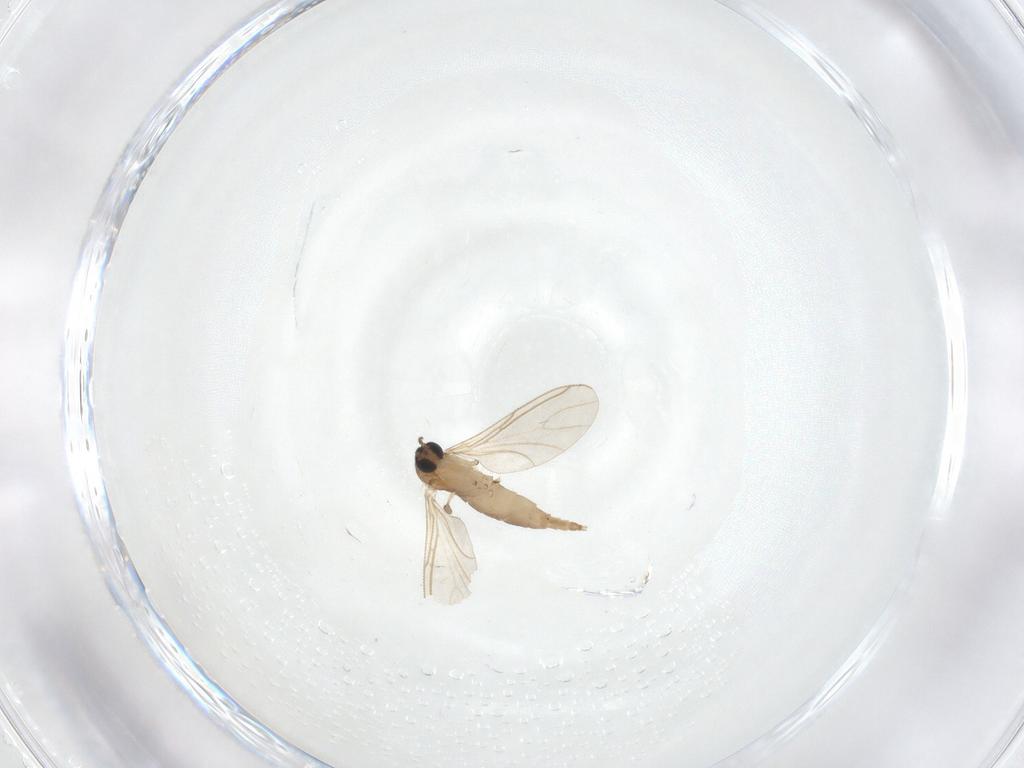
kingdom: Animalia
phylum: Arthropoda
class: Insecta
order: Diptera
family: Sciaridae
